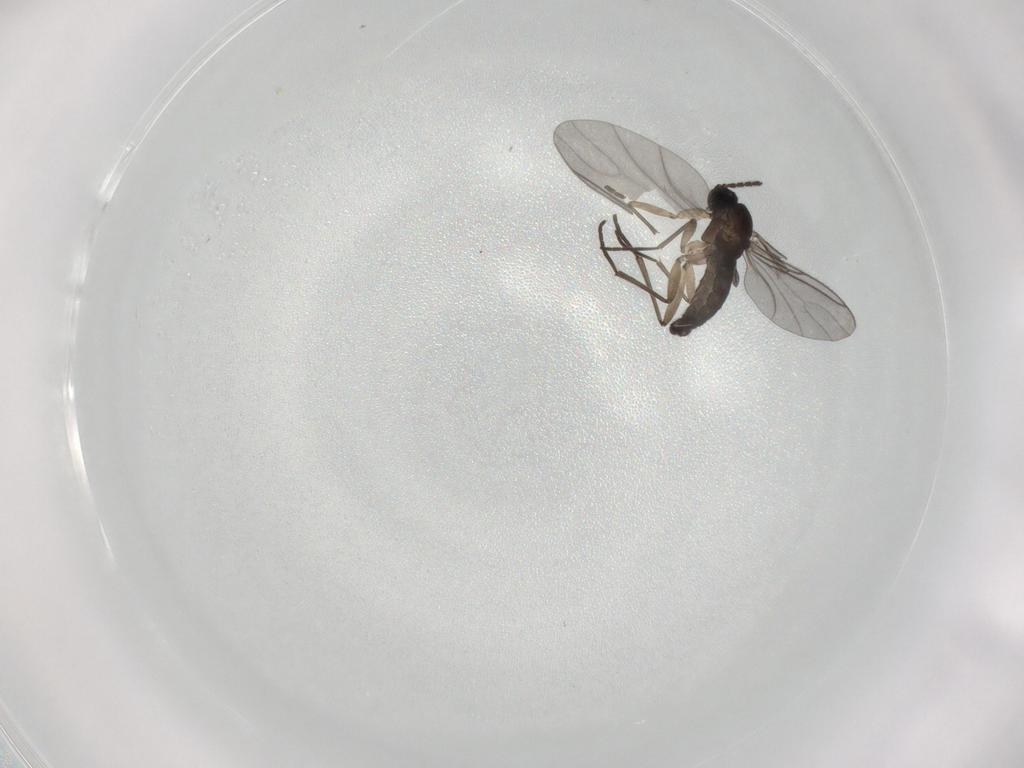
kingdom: Animalia
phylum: Arthropoda
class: Insecta
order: Diptera
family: Sciaridae
